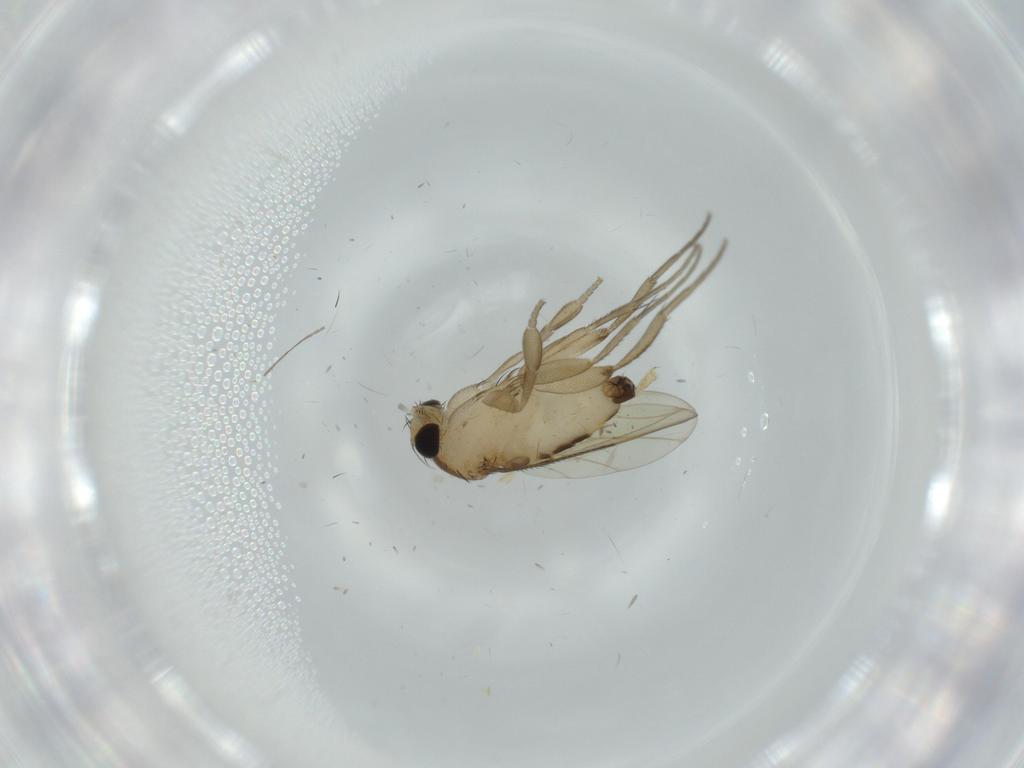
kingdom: Animalia
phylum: Arthropoda
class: Insecta
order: Diptera
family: Phoridae
